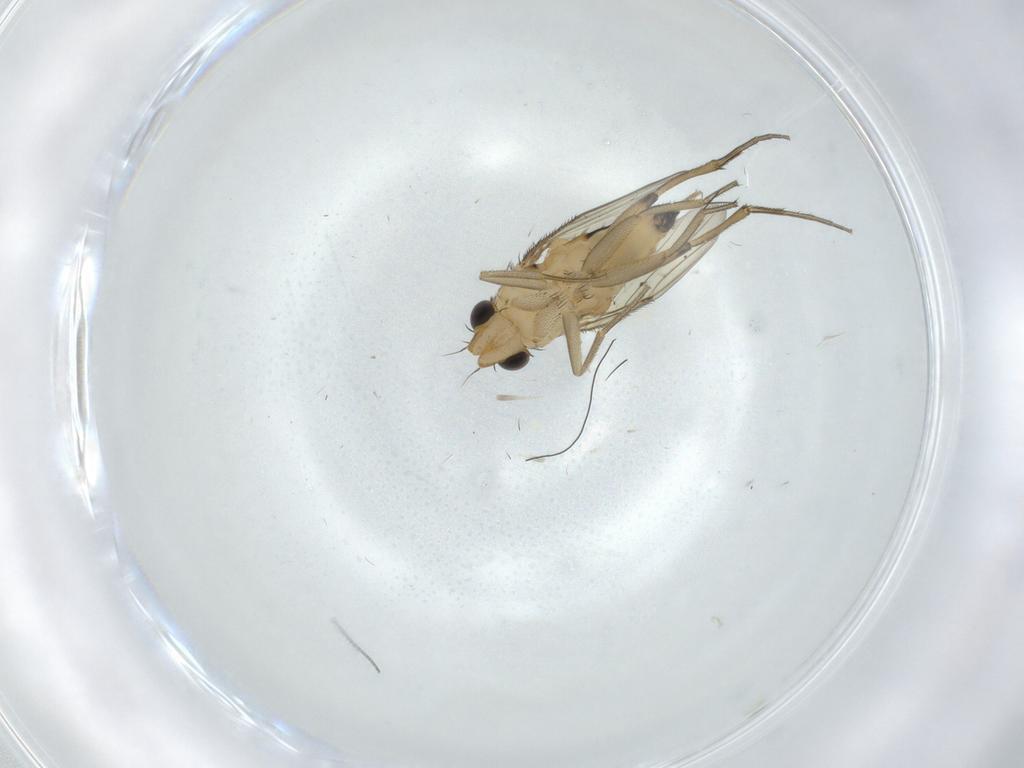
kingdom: Animalia
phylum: Arthropoda
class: Insecta
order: Diptera
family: Phoridae
